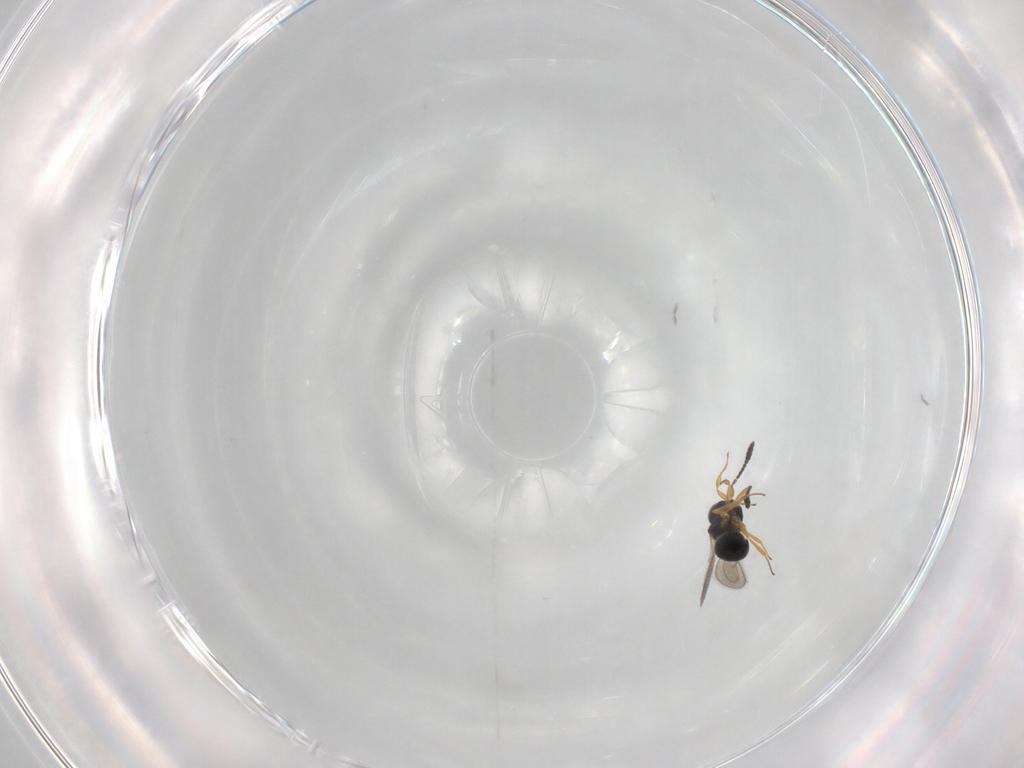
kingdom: Animalia
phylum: Arthropoda
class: Insecta
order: Hymenoptera
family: Scelionidae
